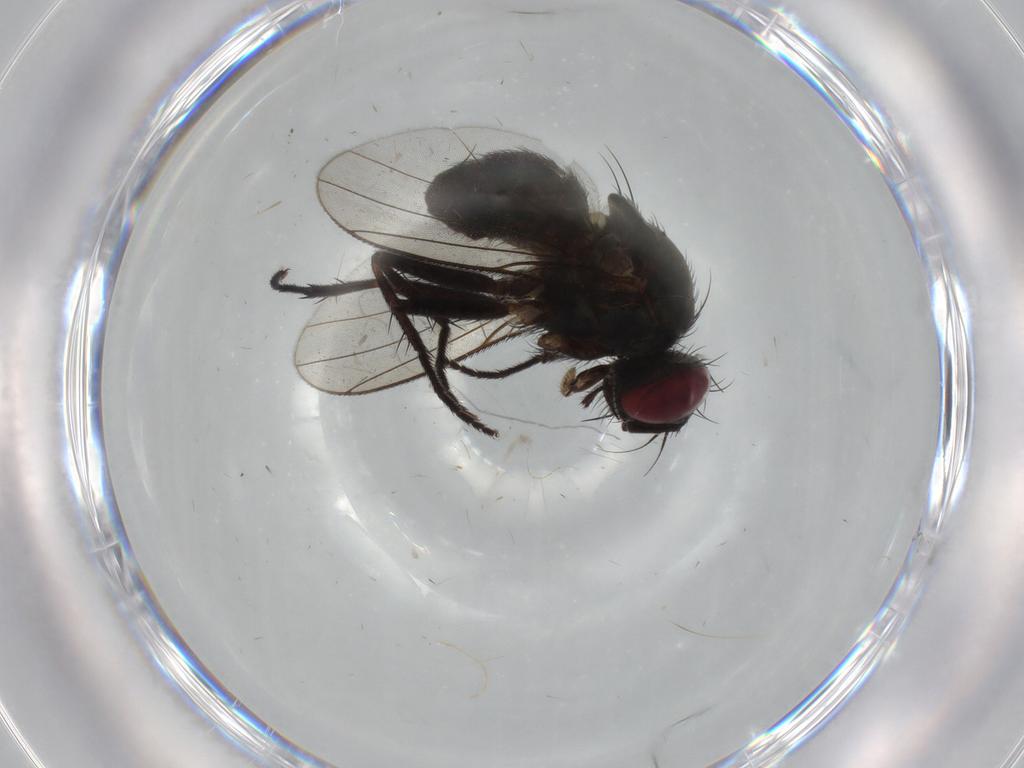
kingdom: Animalia
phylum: Arthropoda
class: Insecta
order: Diptera
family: Muscidae
